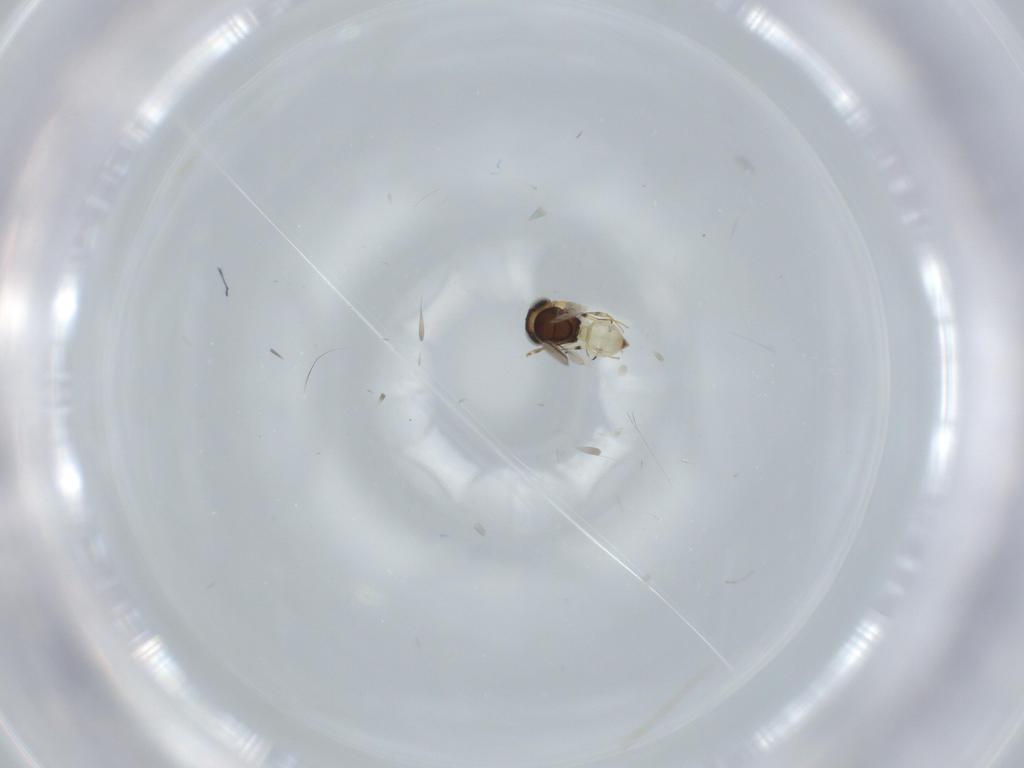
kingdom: Animalia
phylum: Arthropoda
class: Insecta
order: Hymenoptera
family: Scelionidae
